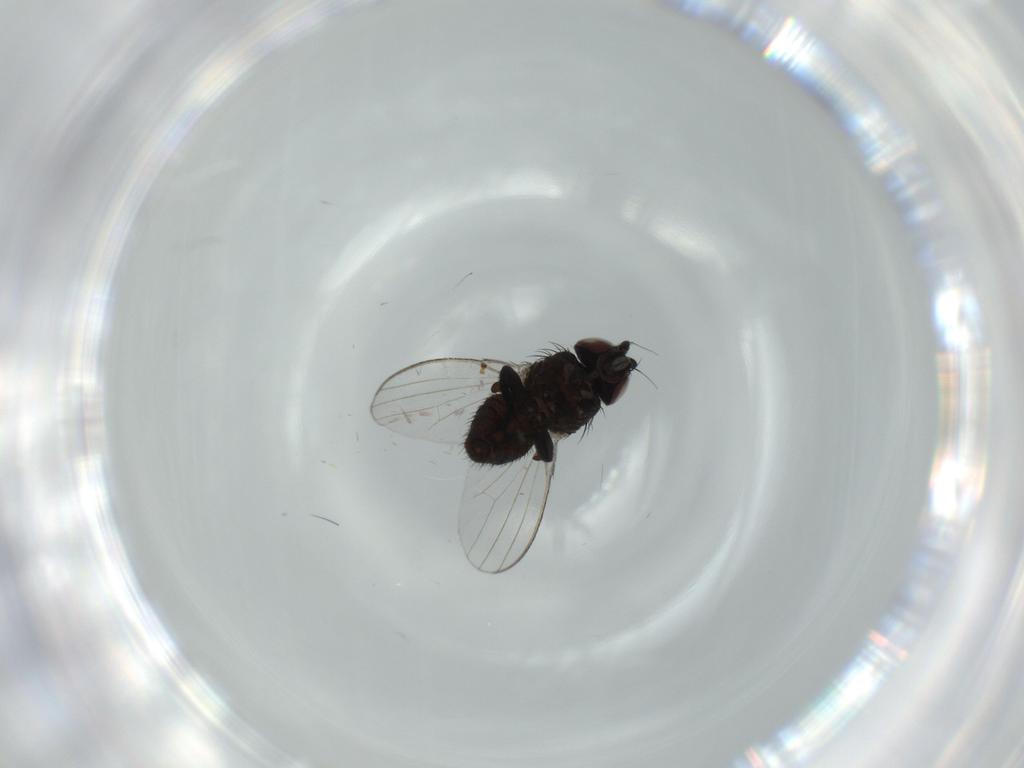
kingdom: Animalia
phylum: Arthropoda
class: Insecta
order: Diptera
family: Milichiidae
